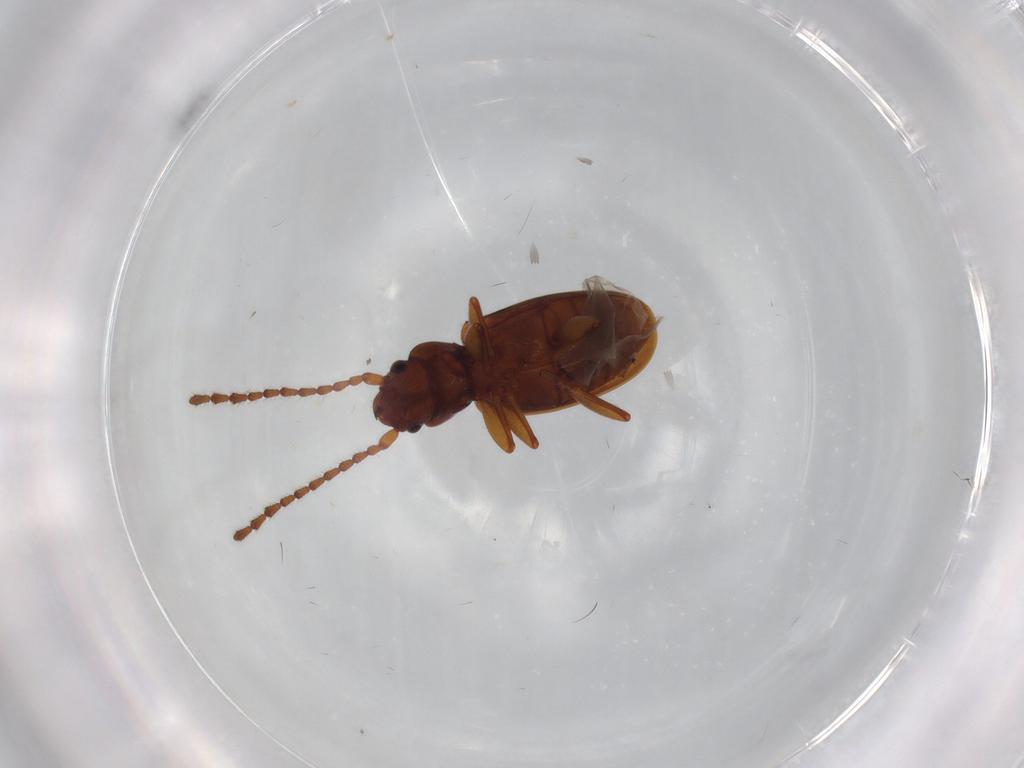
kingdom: Animalia
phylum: Arthropoda
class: Insecta
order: Coleoptera
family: Laemophloeidae
